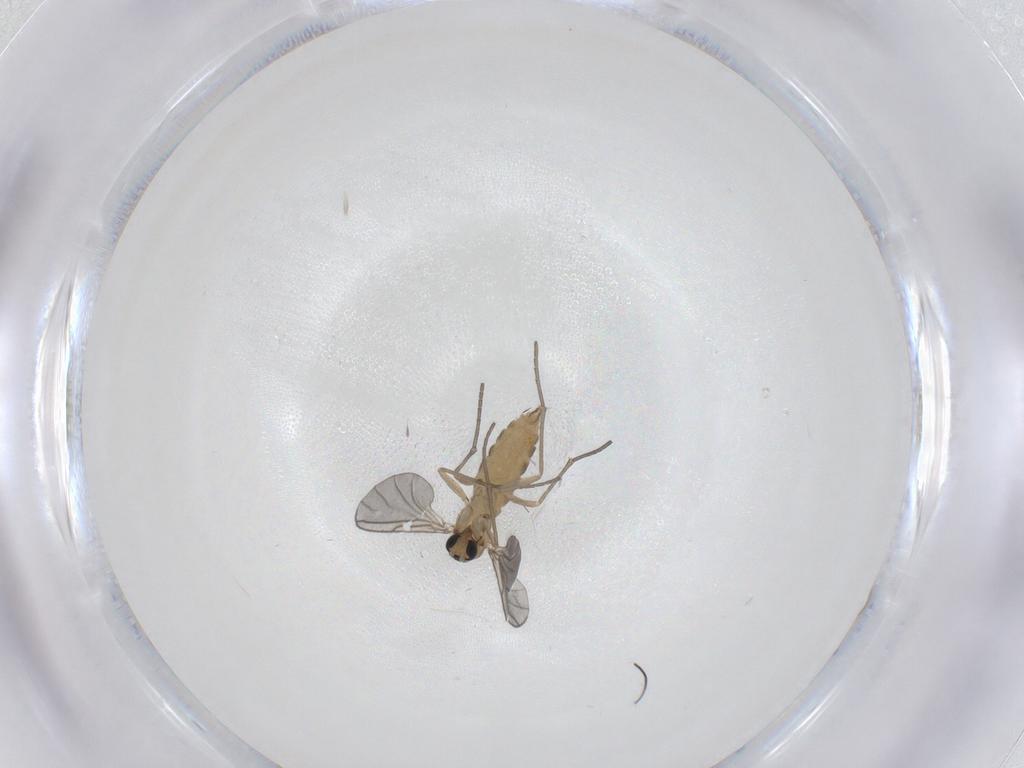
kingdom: Animalia
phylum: Arthropoda
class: Insecta
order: Diptera
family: Sciaridae
